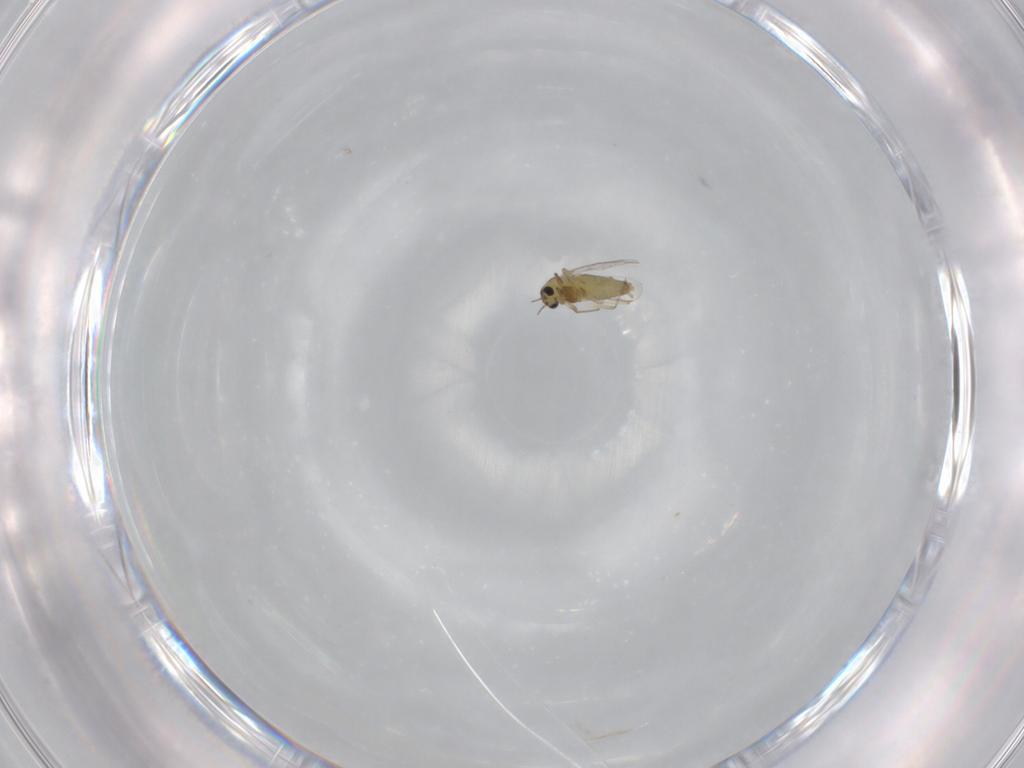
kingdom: Animalia
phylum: Arthropoda
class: Insecta
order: Diptera
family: Chironomidae
